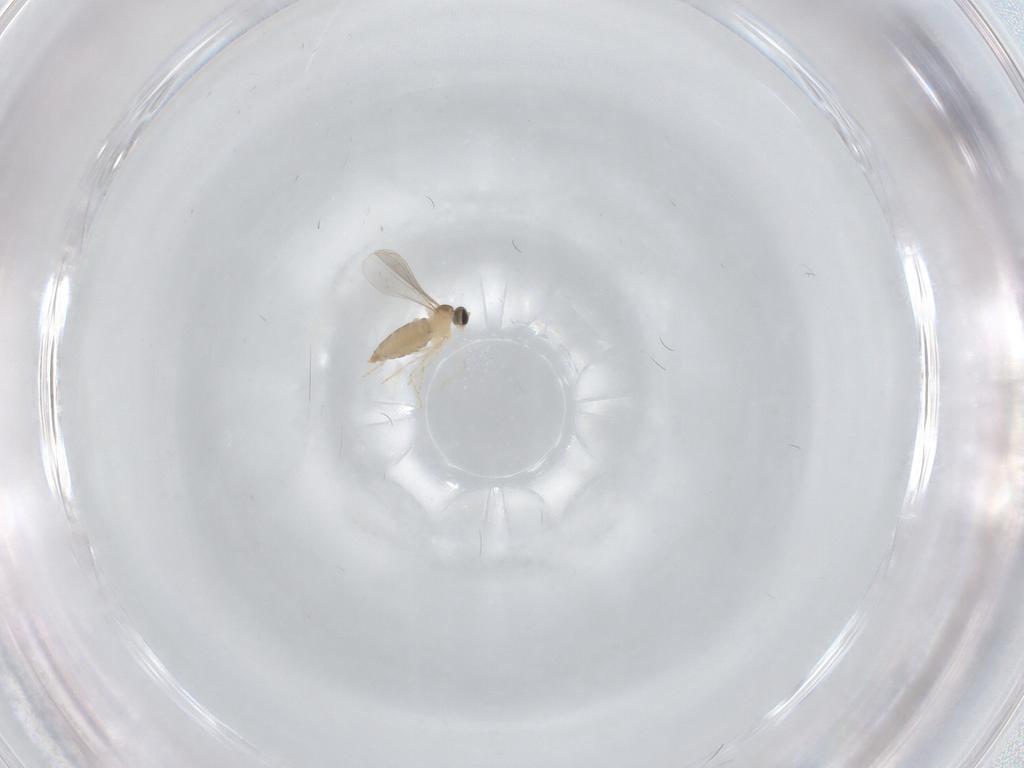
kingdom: Animalia
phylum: Arthropoda
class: Insecta
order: Diptera
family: Cecidomyiidae
